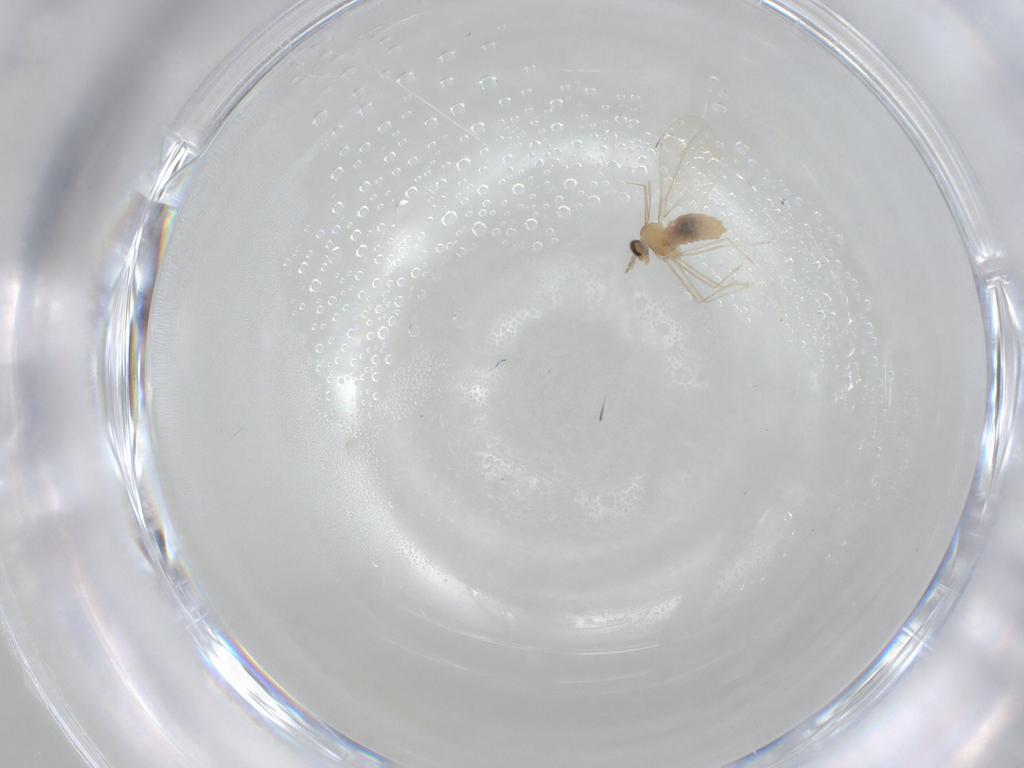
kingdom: Animalia
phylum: Arthropoda
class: Insecta
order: Diptera
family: Cecidomyiidae
